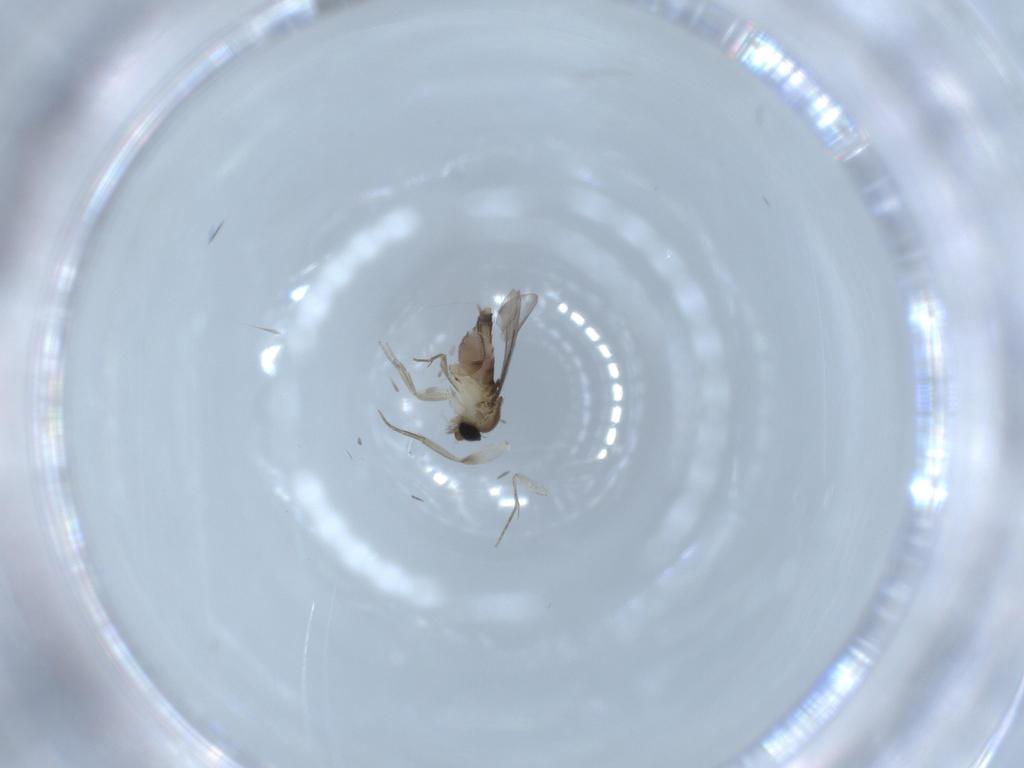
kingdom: Animalia
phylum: Arthropoda
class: Insecta
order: Diptera
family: Phoridae
